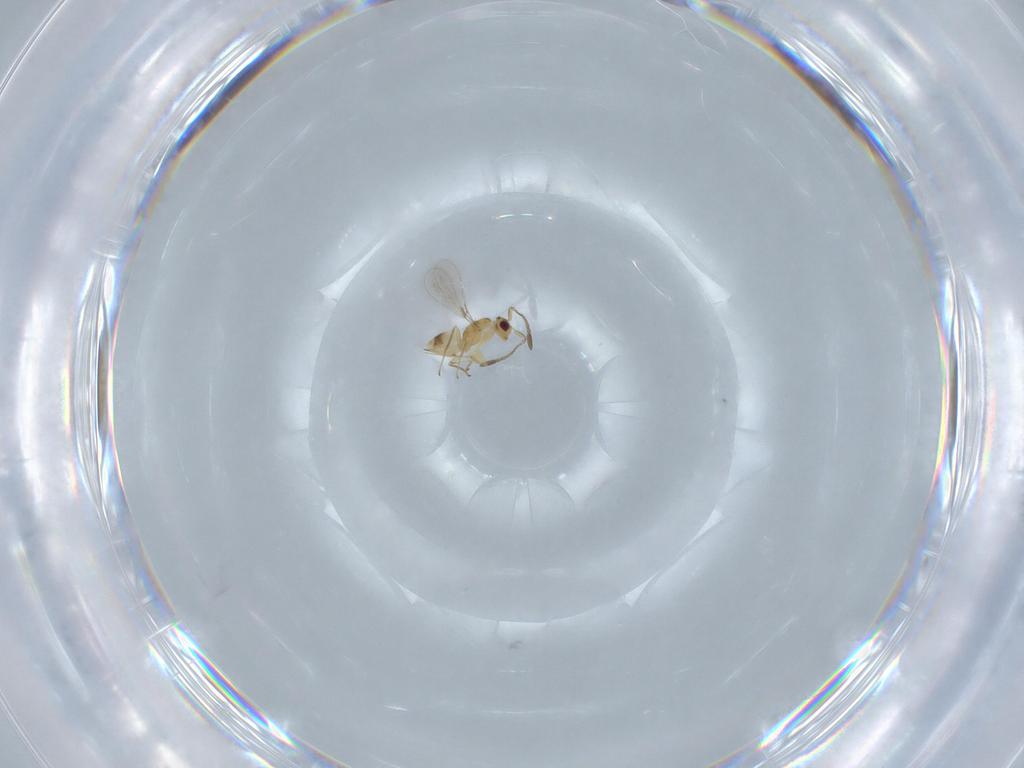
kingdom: Animalia
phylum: Arthropoda
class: Insecta
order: Hymenoptera
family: Mymaridae
